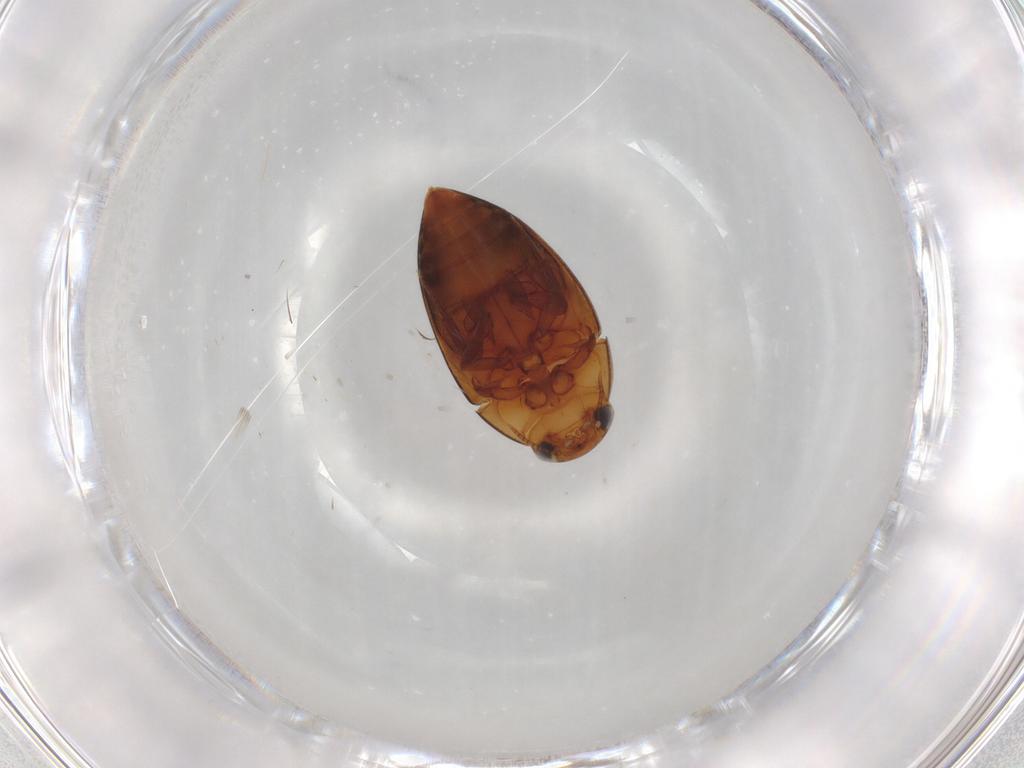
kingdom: Animalia
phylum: Arthropoda
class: Insecta
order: Coleoptera
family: Noteridae
